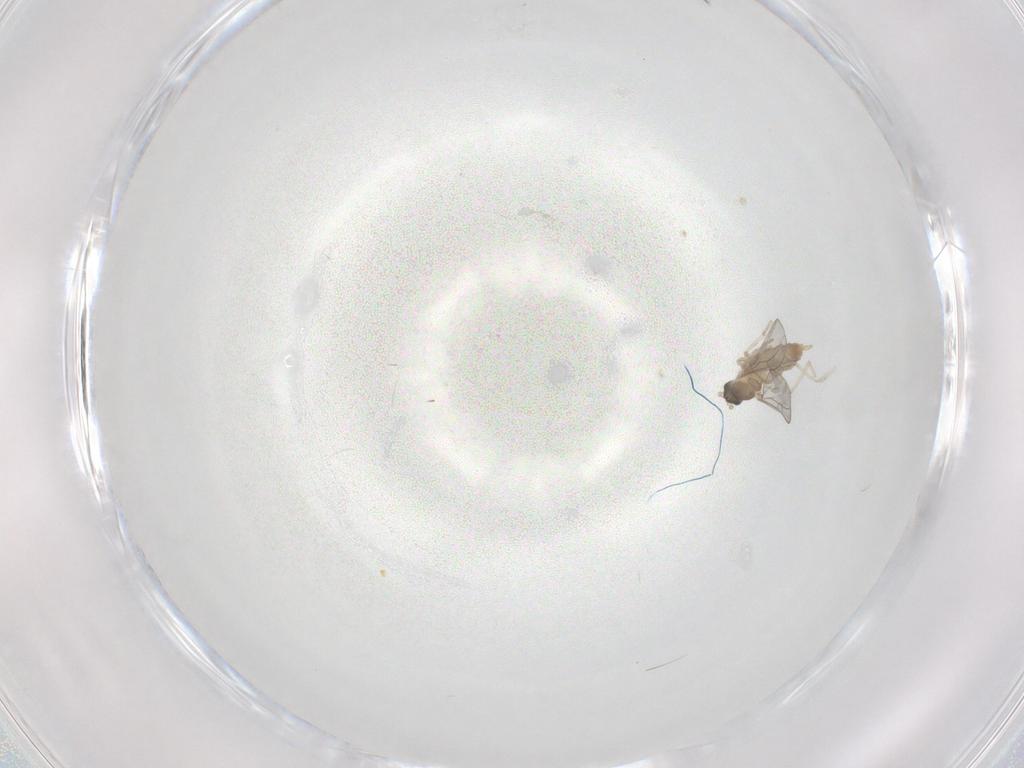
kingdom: Animalia
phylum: Arthropoda
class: Insecta
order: Diptera
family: Cecidomyiidae
